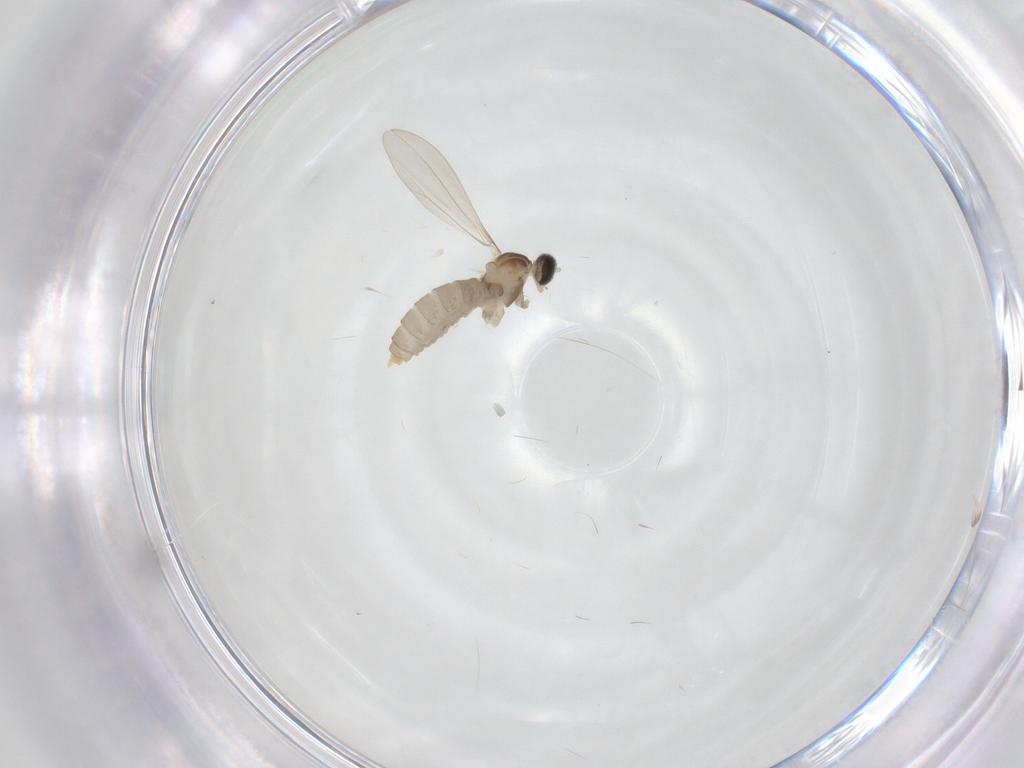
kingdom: Animalia
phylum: Arthropoda
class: Insecta
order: Diptera
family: Cecidomyiidae
